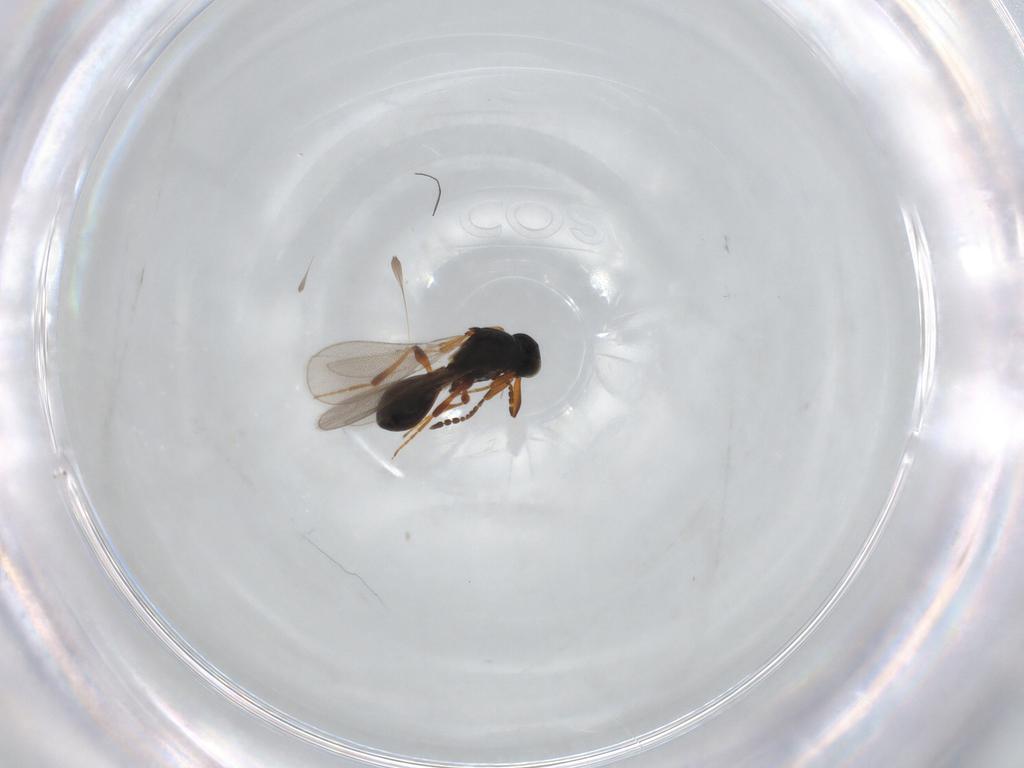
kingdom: Animalia
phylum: Arthropoda
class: Insecta
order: Hymenoptera
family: Platygastridae
